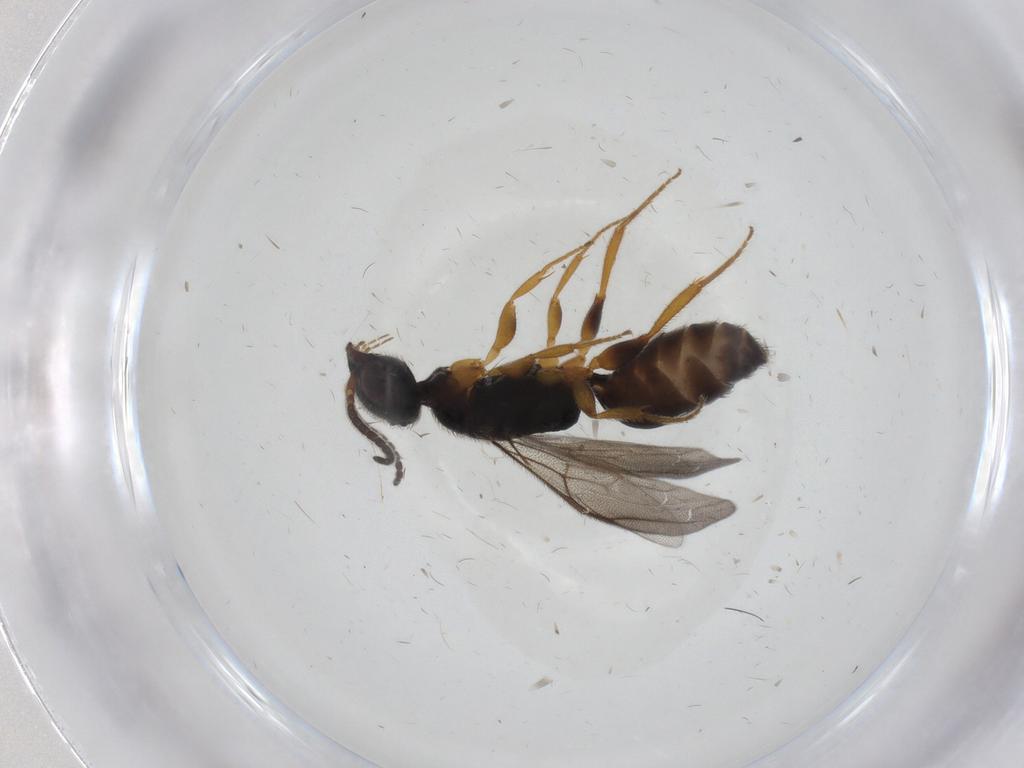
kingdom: Animalia
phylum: Arthropoda
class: Insecta
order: Hymenoptera
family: Bethylidae
